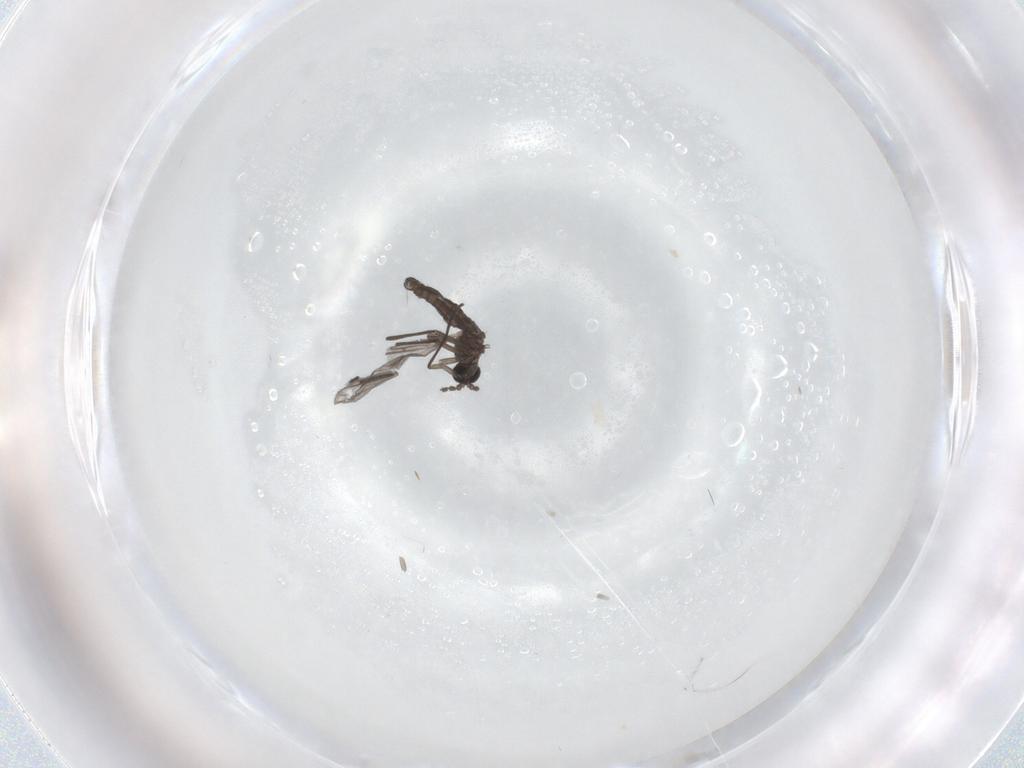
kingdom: Animalia
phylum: Arthropoda
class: Insecta
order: Diptera
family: Cecidomyiidae
